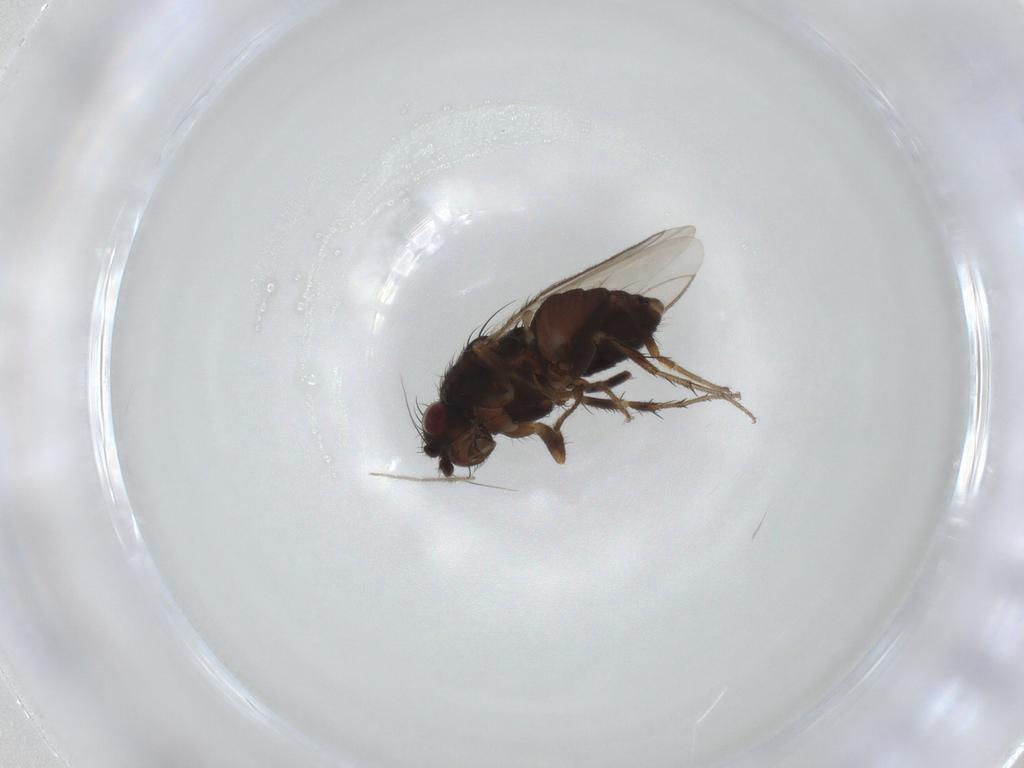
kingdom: Animalia
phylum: Arthropoda
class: Insecta
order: Diptera
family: Sphaeroceridae
